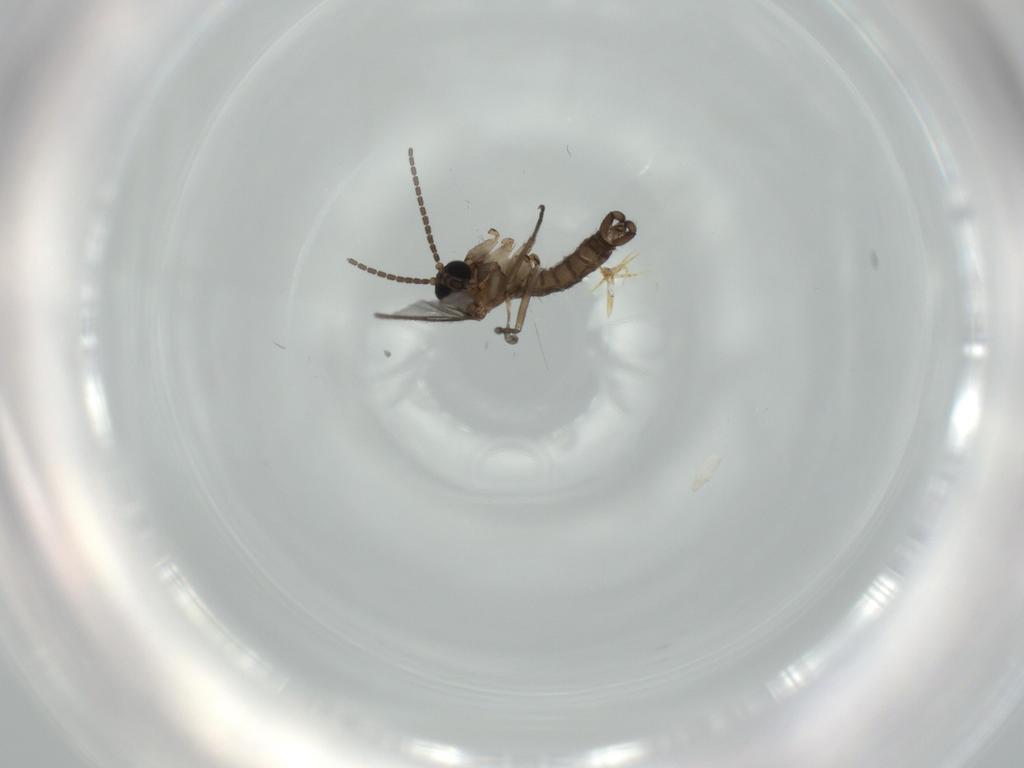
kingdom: Animalia
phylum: Arthropoda
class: Insecta
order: Diptera
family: Sciaridae
